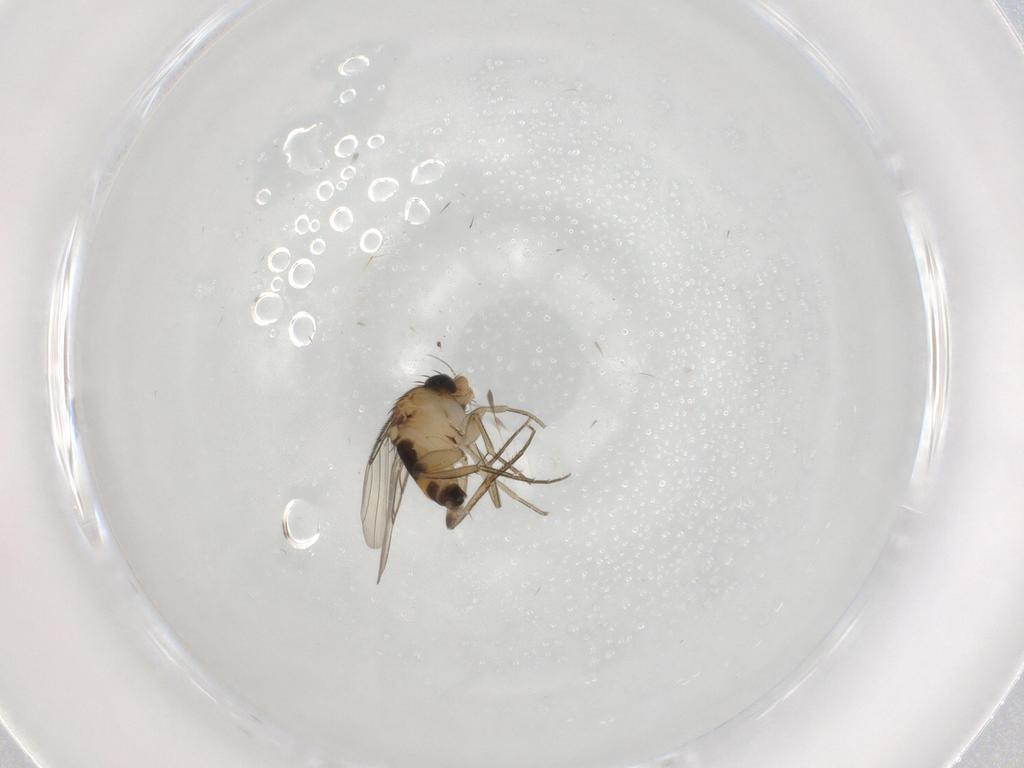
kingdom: Animalia
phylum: Arthropoda
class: Insecta
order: Diptera
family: Phoridae
